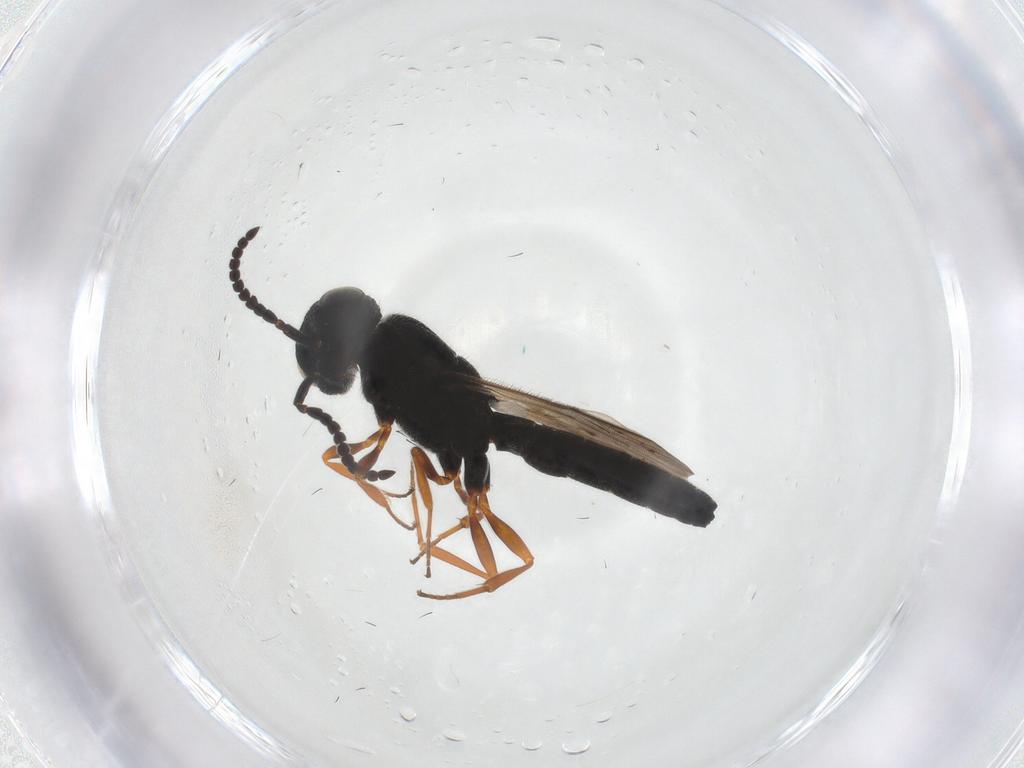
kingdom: Animalia
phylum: Arthropoda
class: Insecta
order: Hymenoptera
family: Scelionidae
